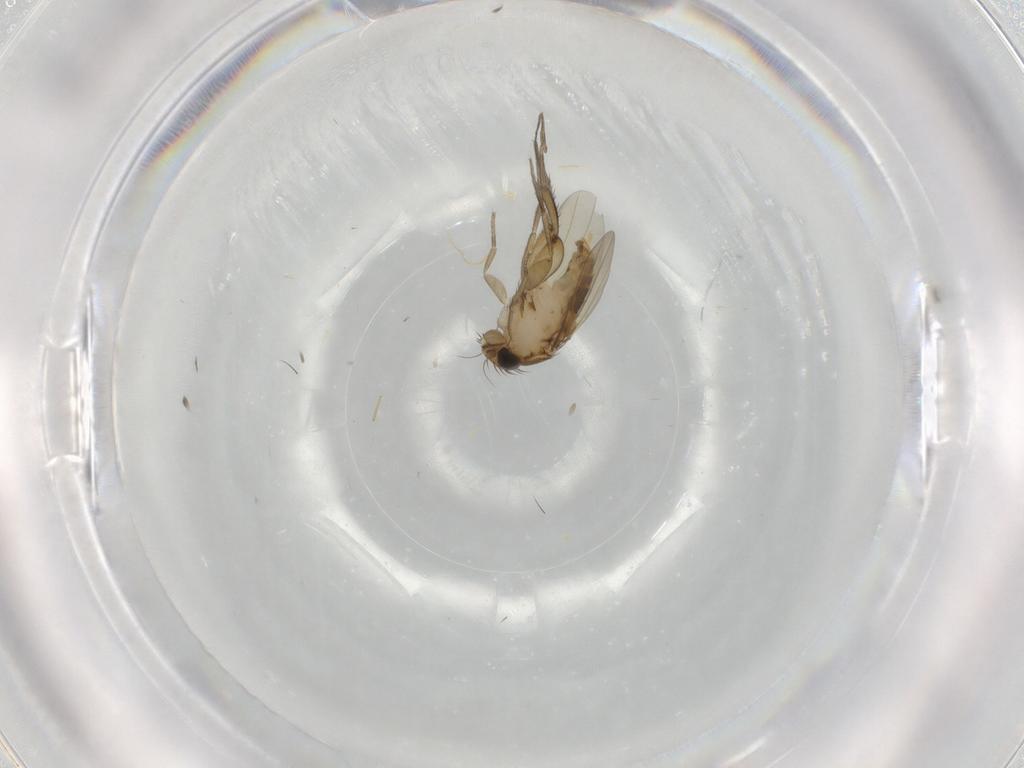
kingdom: Animalia
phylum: Arthropoda
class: Insecta
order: Diptera
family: Phoridae
